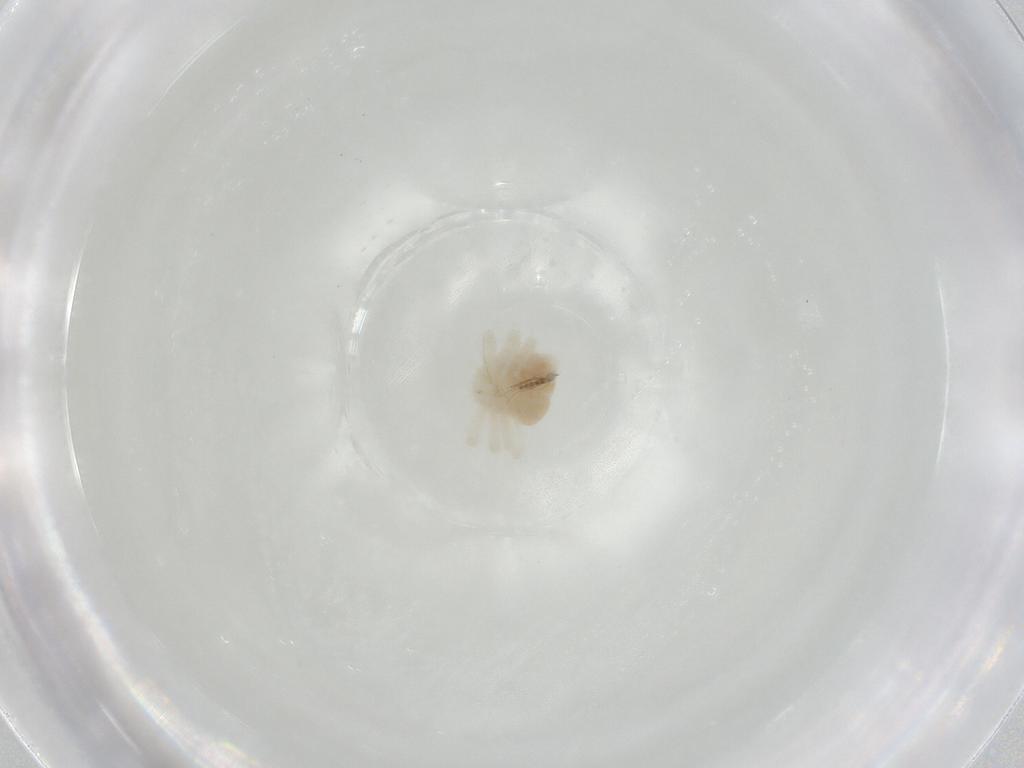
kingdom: Animalia
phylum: Arthropoda
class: Arachnida
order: Trombidiformes
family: Anystidae
